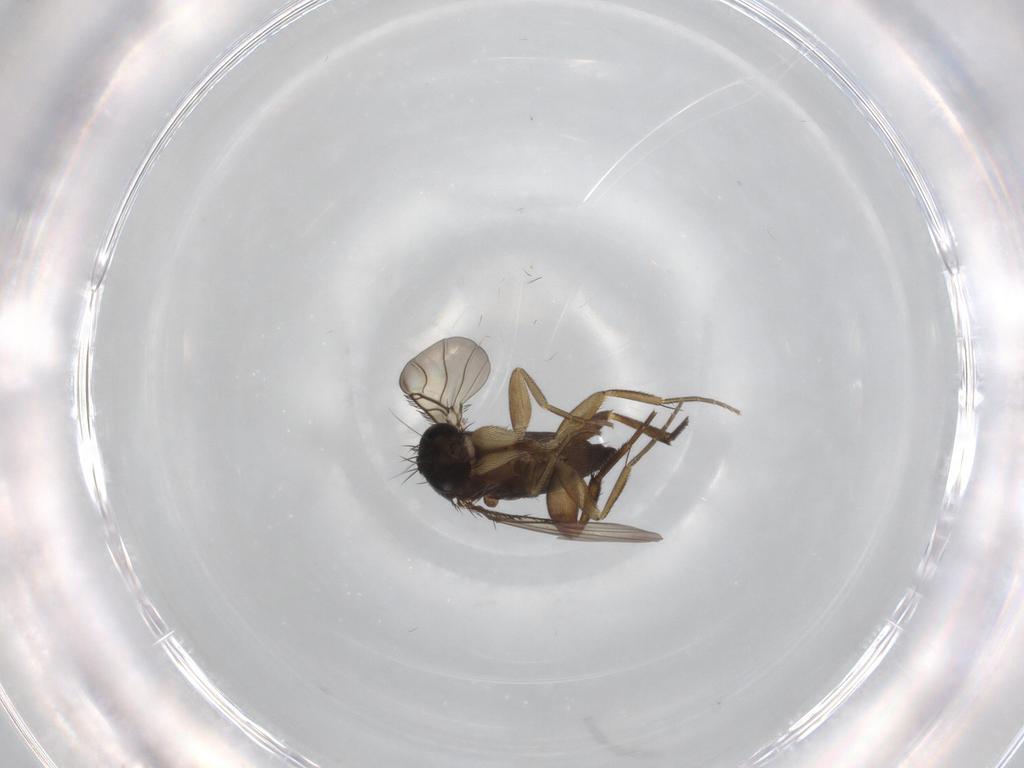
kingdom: Animalia
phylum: Arthropoda
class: Insecta
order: Diptera
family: Phoridae
